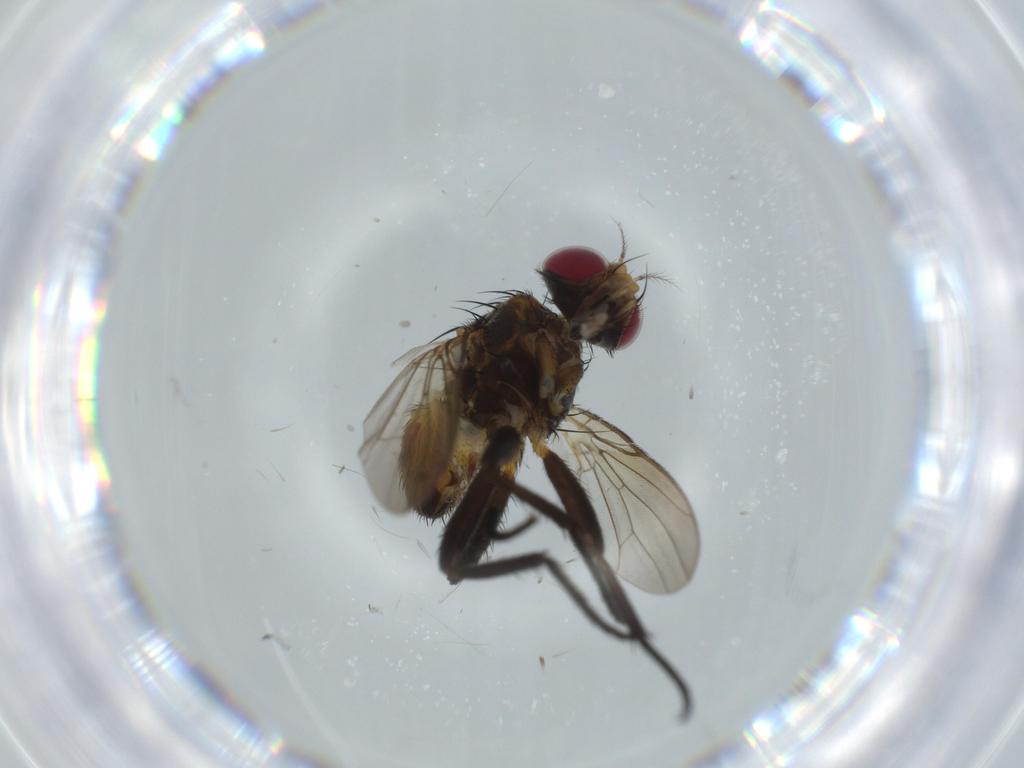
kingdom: Animalia
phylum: Arthropoda
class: Insecta
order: Diptera
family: Anthomyiidae
